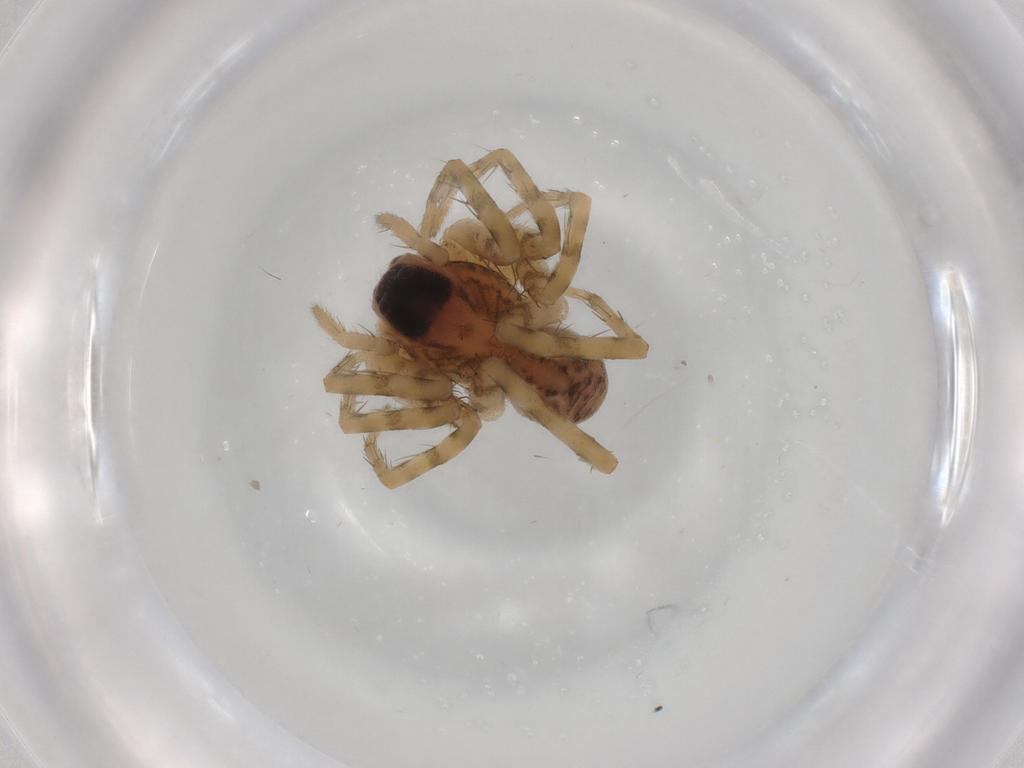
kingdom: Animalia
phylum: Arthropoda
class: Arachnida
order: Araneae
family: Lycosidae
